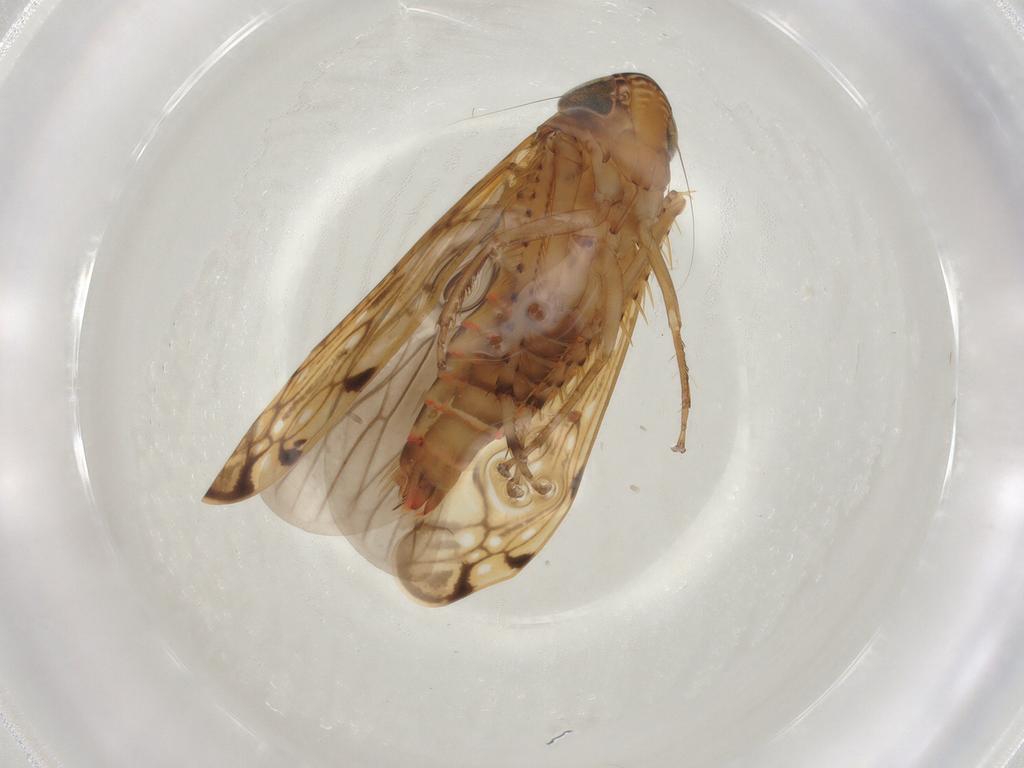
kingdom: Animalia
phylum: Arthropoda
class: Insecta
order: Hemiptera
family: Cicadellidae
